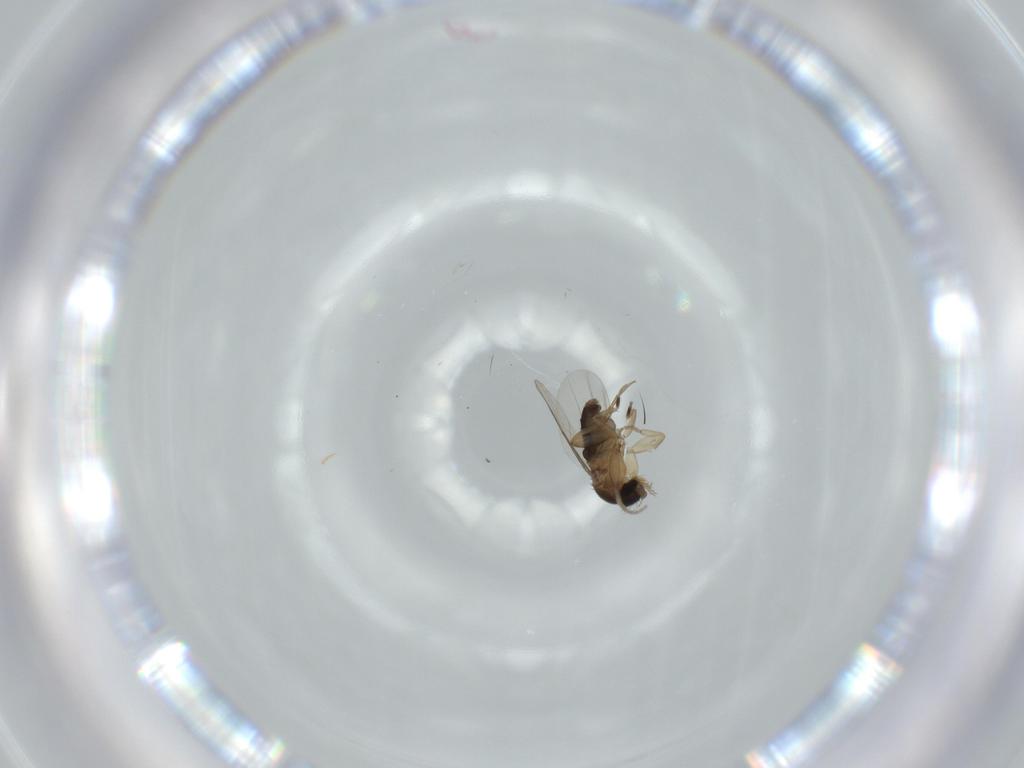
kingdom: Animalia
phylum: Arthropoda
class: Insecta
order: Diptera
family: Phoridae
